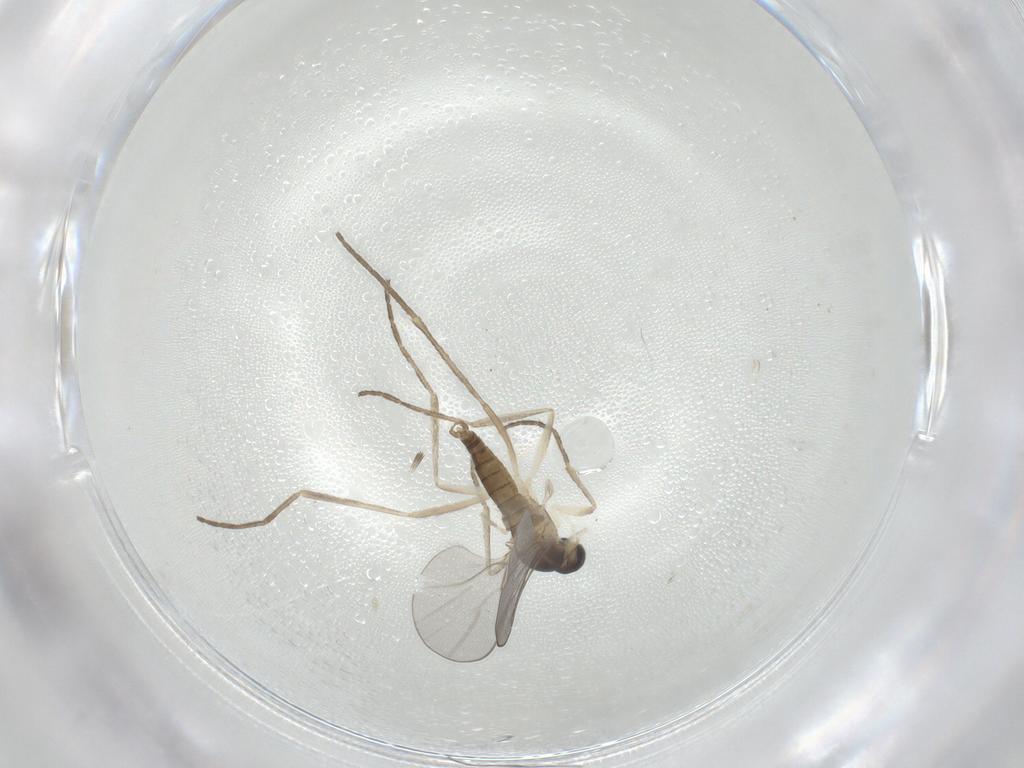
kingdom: Animalia
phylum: Arthropoda
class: Insecta
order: Diptera
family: Cecidomyiidae
